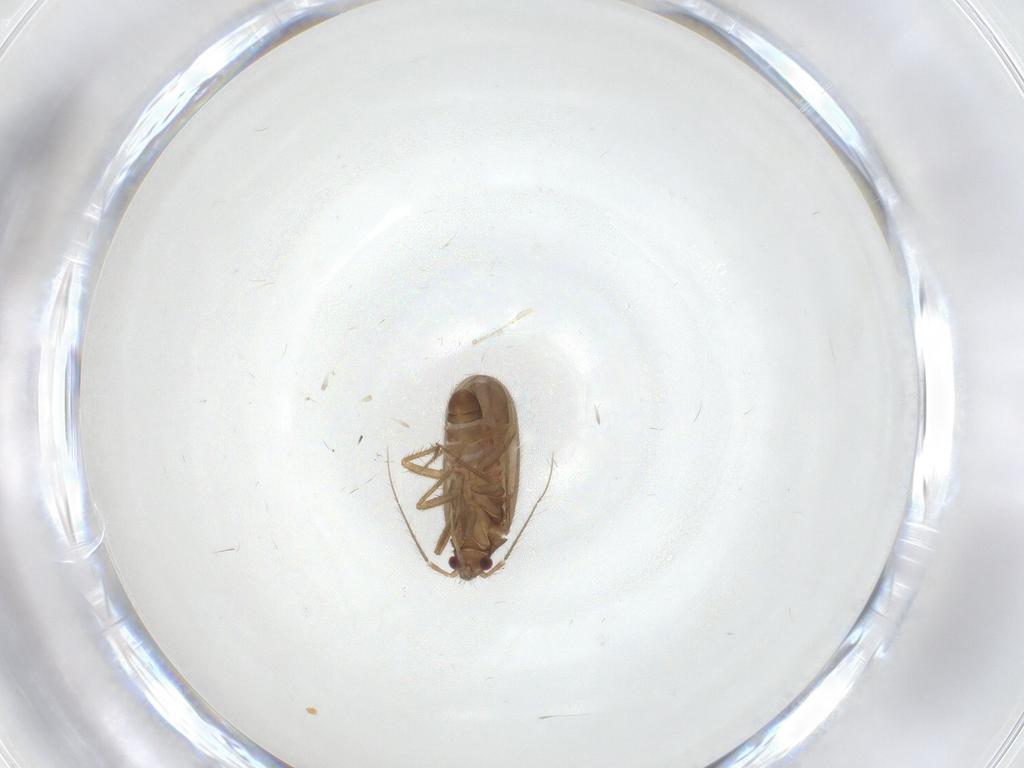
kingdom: Animalia
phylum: Arthropoda
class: Insecta
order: Hemiptera
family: Ceratocombidae
